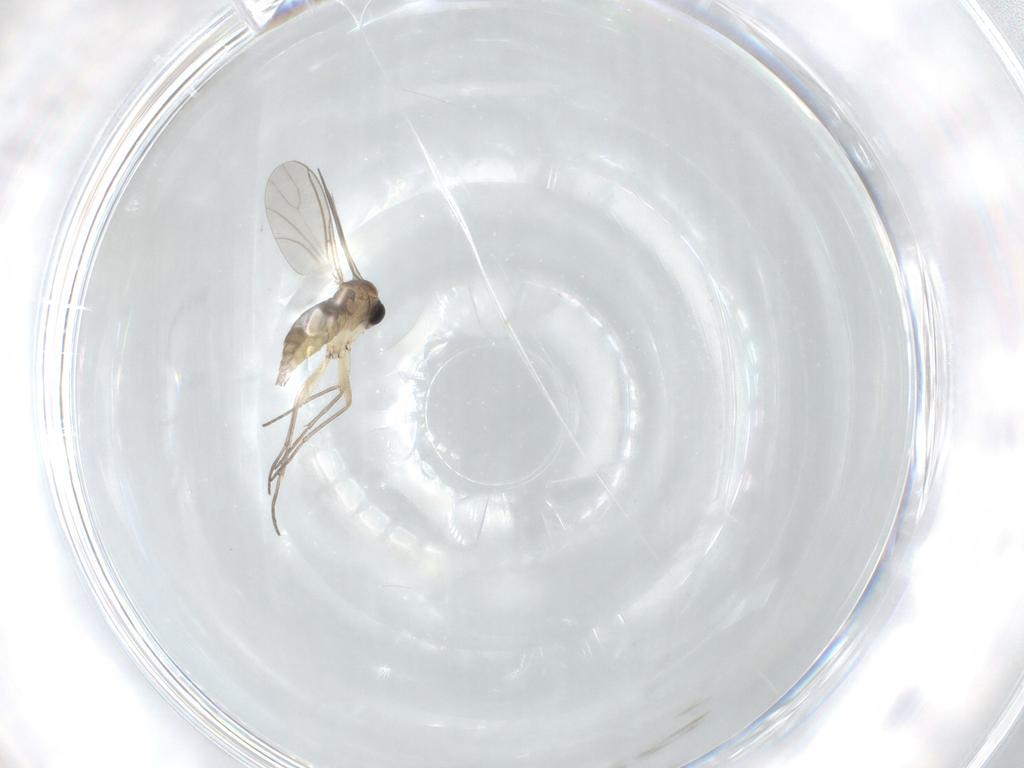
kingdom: Animalia
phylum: Arthropoda
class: Insecta
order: Diptera
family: Sciaridae
